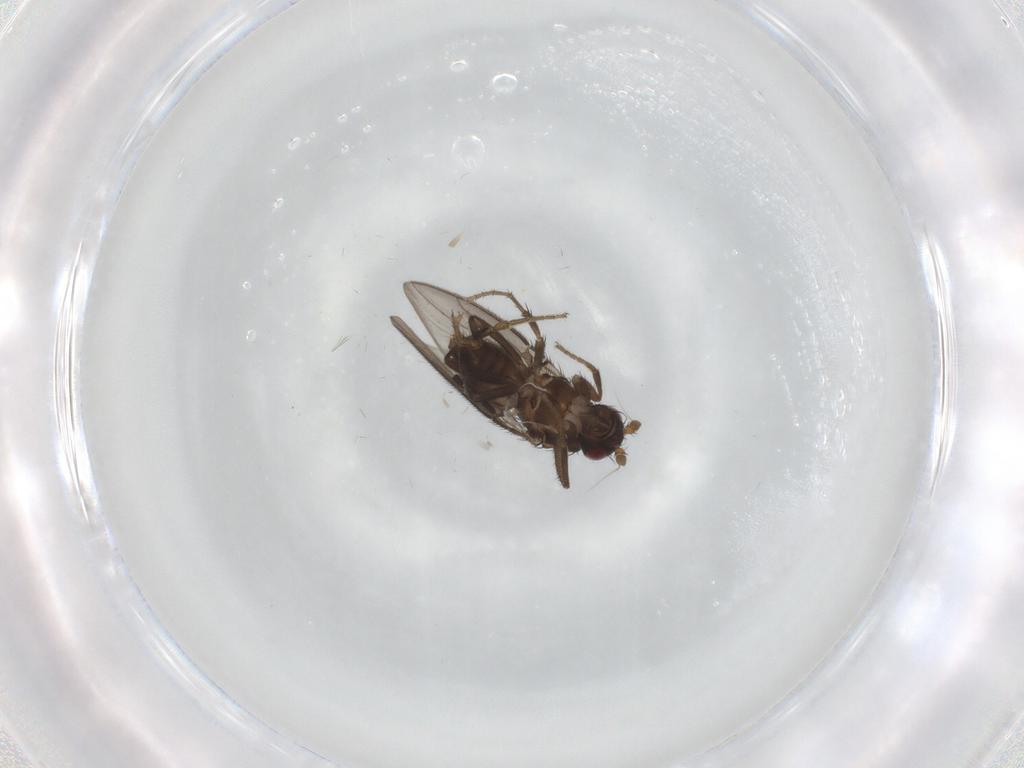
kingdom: Animalia
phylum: Arthropoda
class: Insecta
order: Diptera
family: Sphaeroceridae
